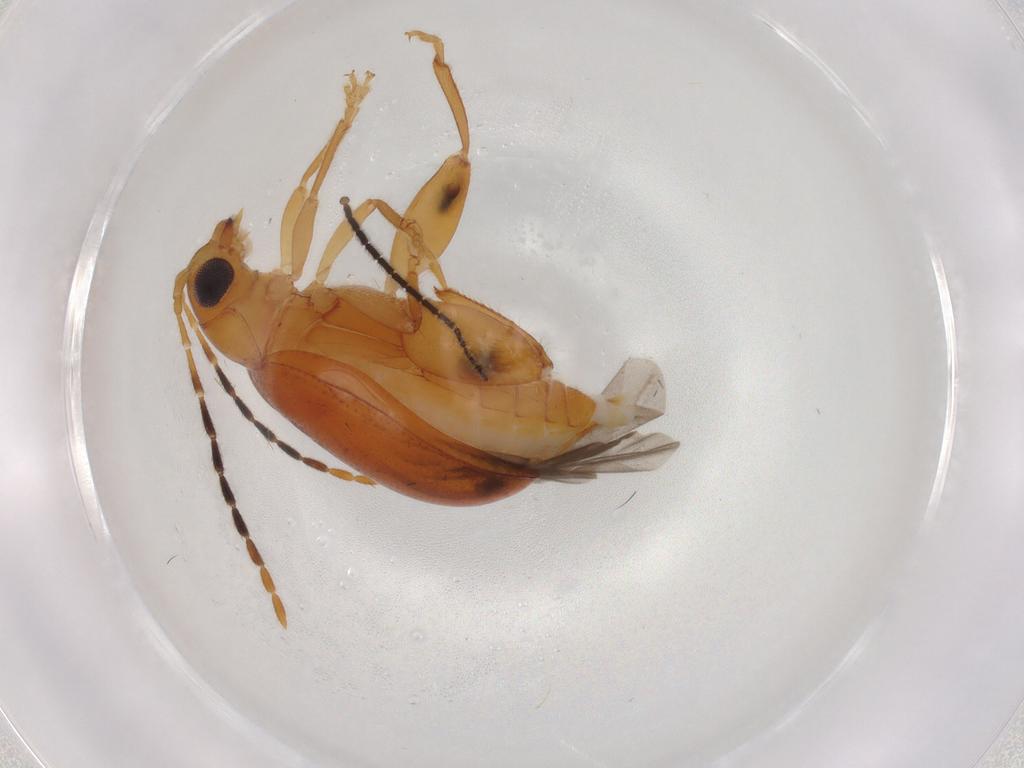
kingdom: Animalia
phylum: Arthropoda
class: Insecta
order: Coleoptera
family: Chrysomelidae
